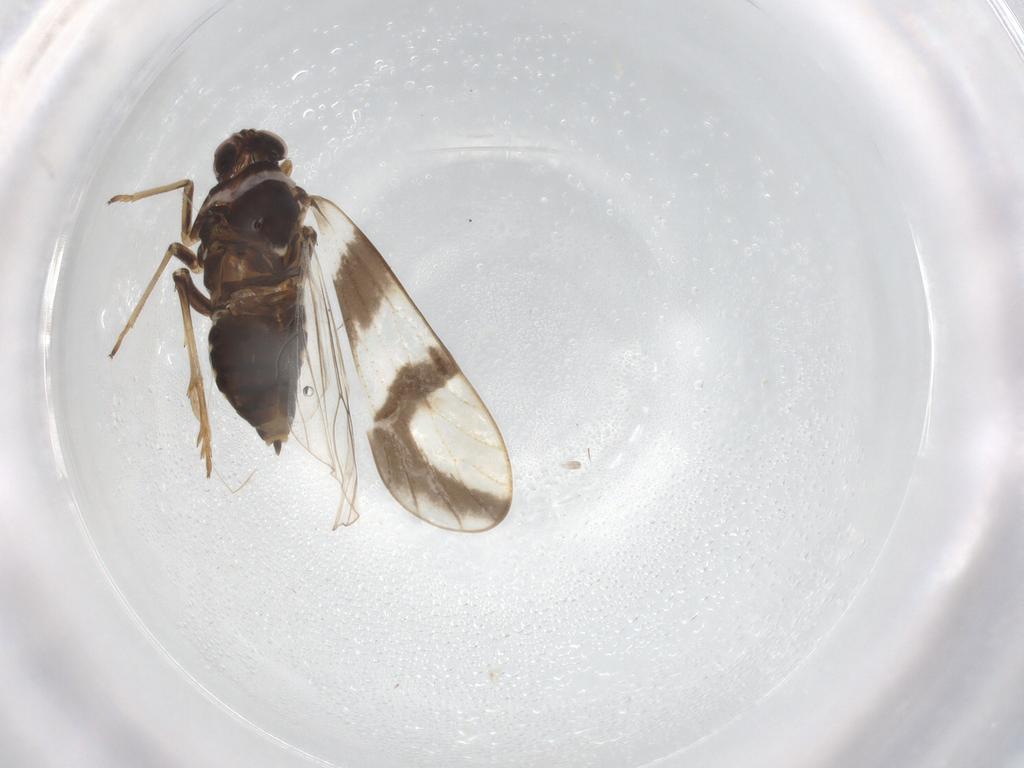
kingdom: Animalia
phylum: Arthropoda
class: Insecta
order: Hemiptera
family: Delphacidae
